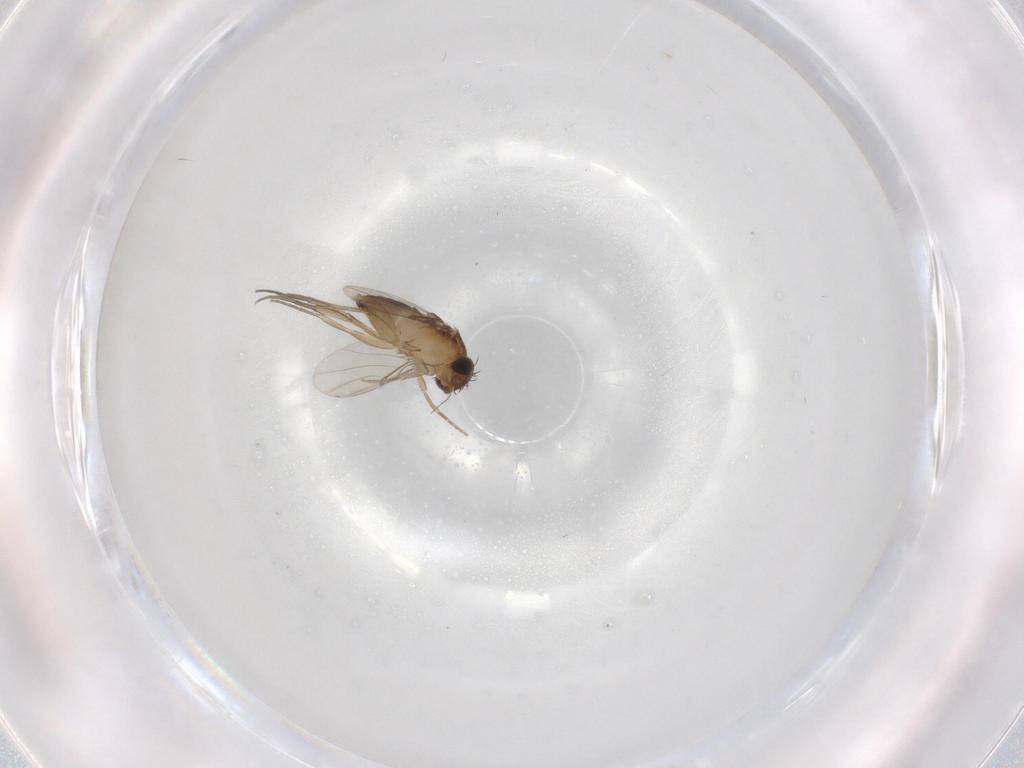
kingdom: Animalia
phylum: Arthropoda
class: Insecta
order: Diptera
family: Phoridae
